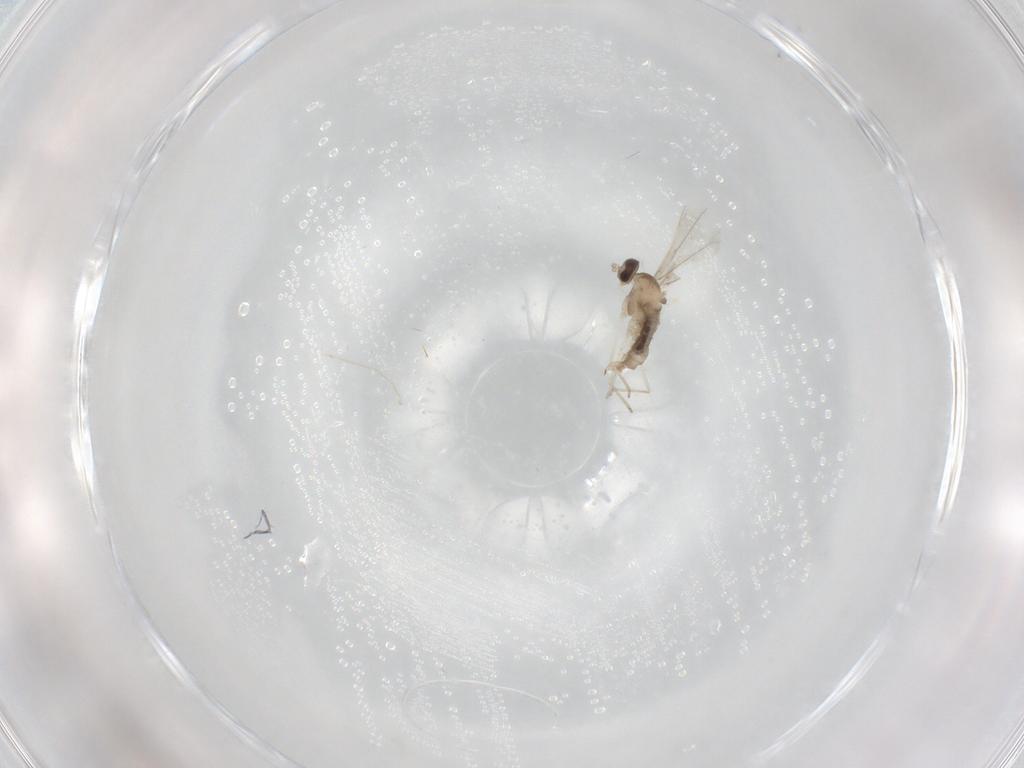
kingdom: Animalia
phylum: Arthropoda
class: Insecta
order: Diptera
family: Cecidomyiidae
